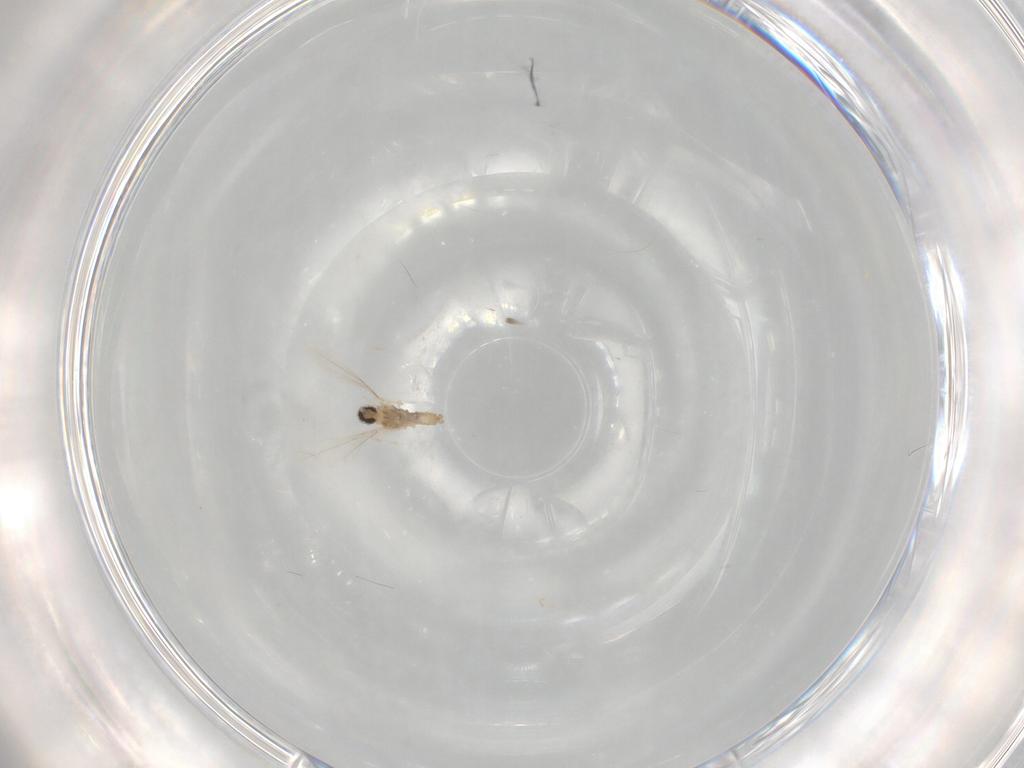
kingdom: Animalia
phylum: Arthropoda
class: Insecta
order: Diptera
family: Cecidomyiidae
